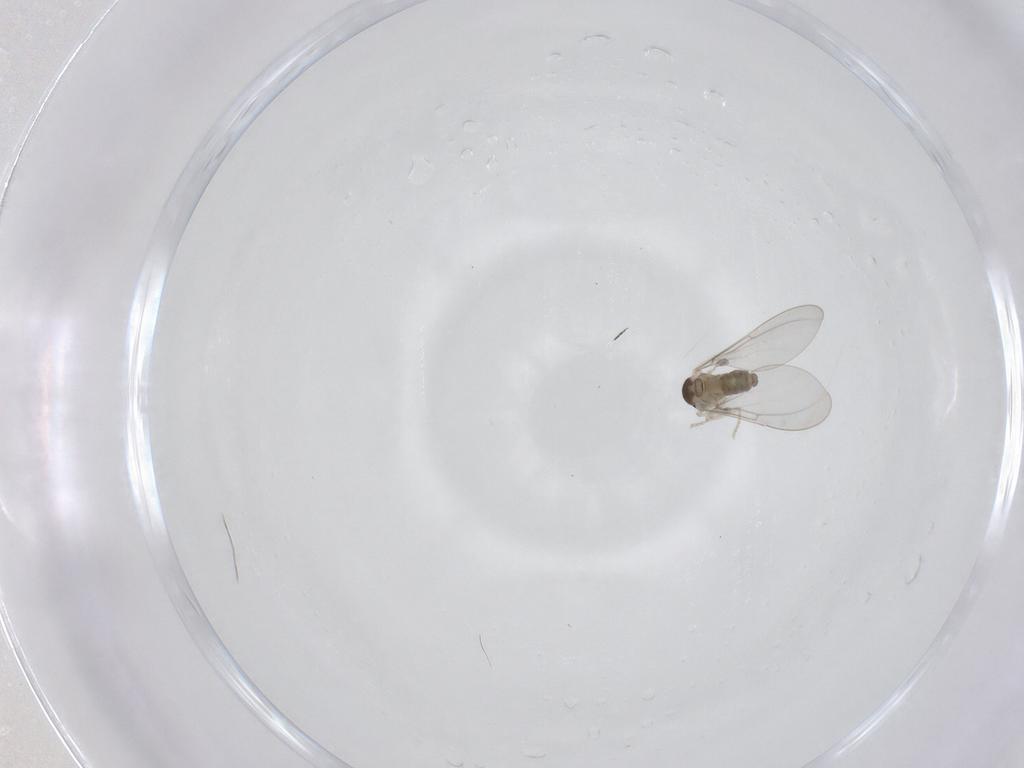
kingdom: Animalia
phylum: Arthropoda
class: Insecta
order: Diptera
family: Cecidomyiidae
